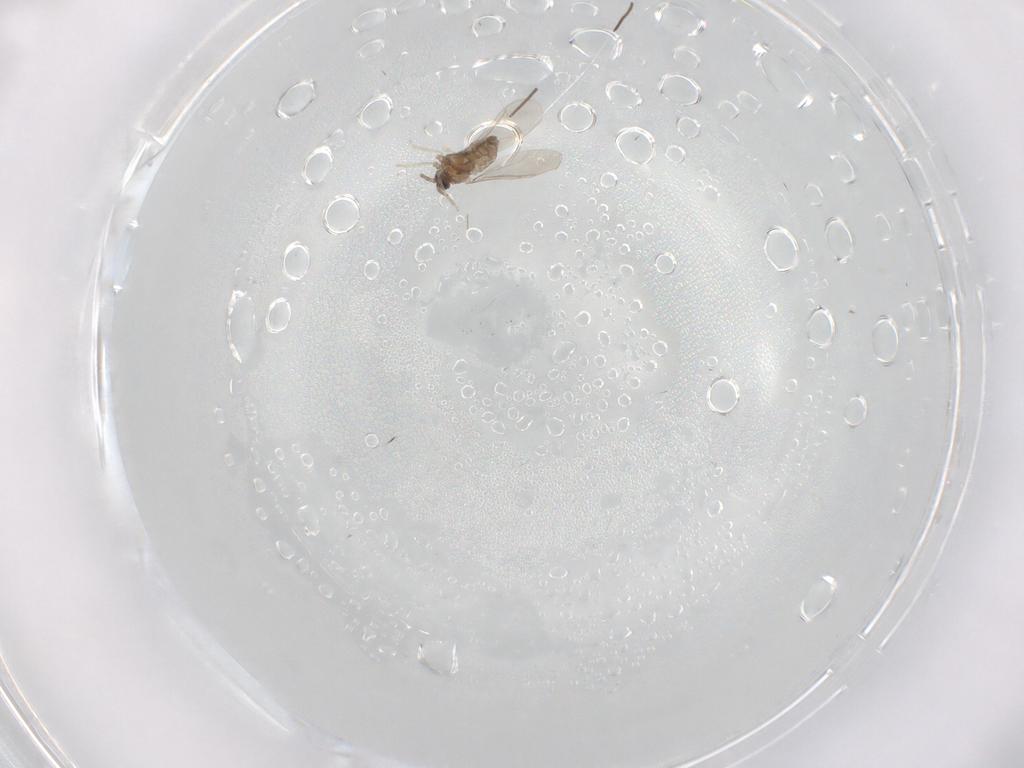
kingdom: Animalia
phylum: Arthropoda
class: Insecta
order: Diptera
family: Cecidomyiidae
